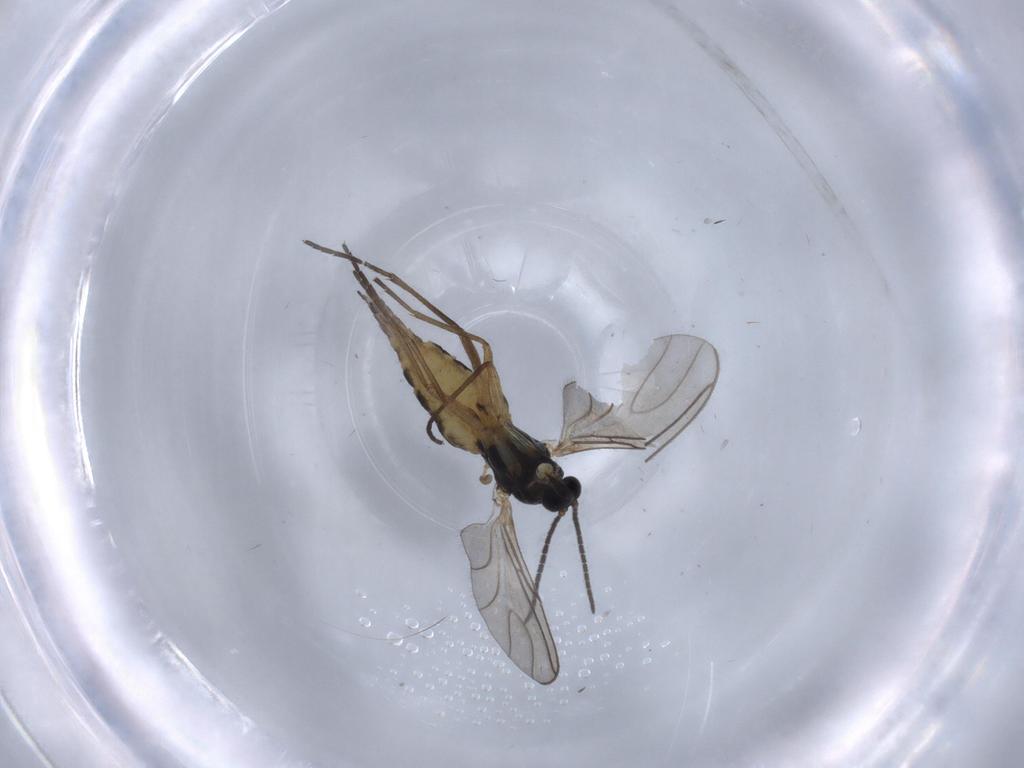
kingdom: Animalia
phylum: Arthropoda
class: Insecta
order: Diptera
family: Sciaridae
